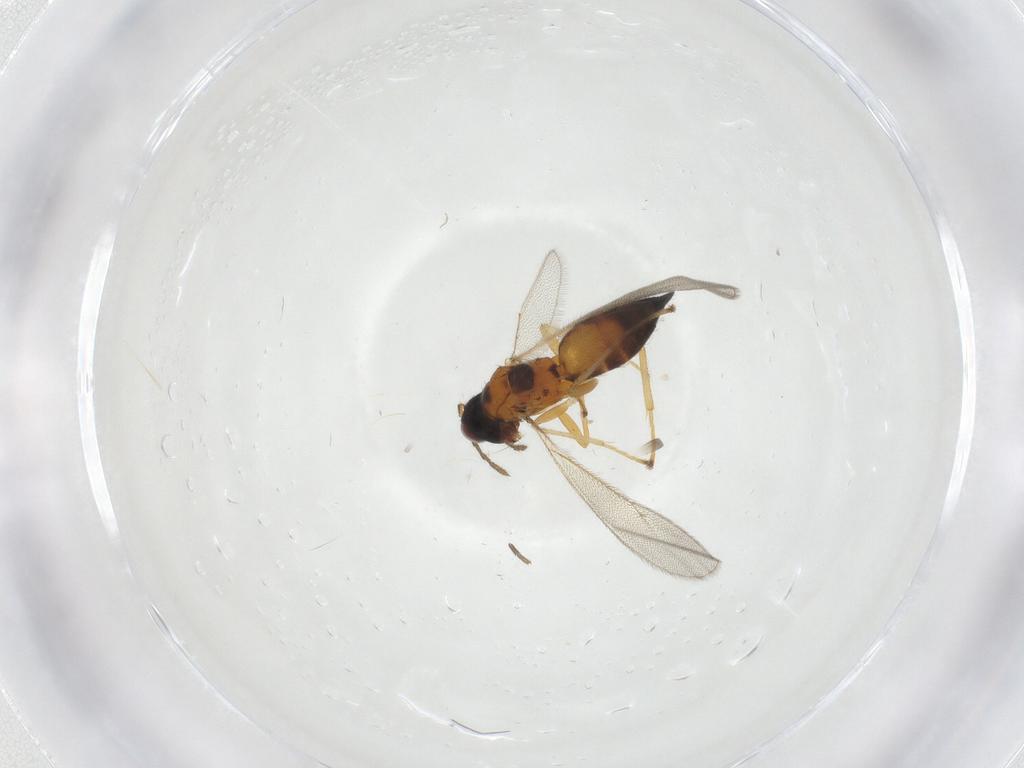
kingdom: Animalia
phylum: Arthropoda
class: Insecta
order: Hymenoptera
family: Eulophidae
